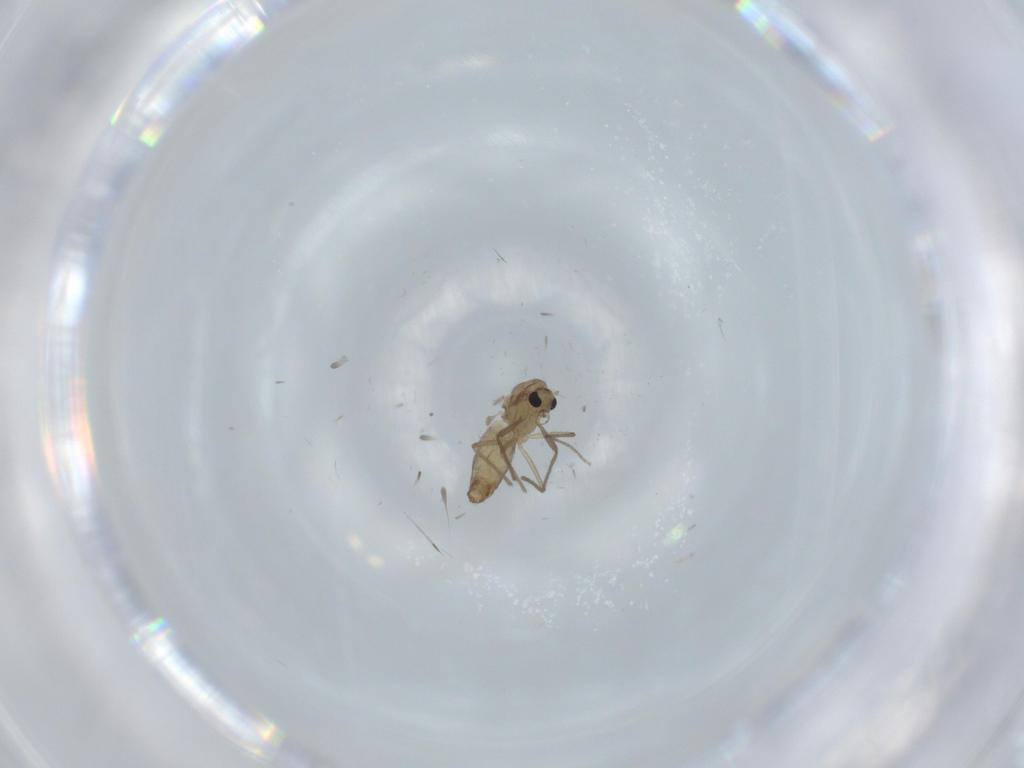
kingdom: Animalia
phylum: Arthropoda
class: Insecta
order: Diptera
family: Chironomidae
